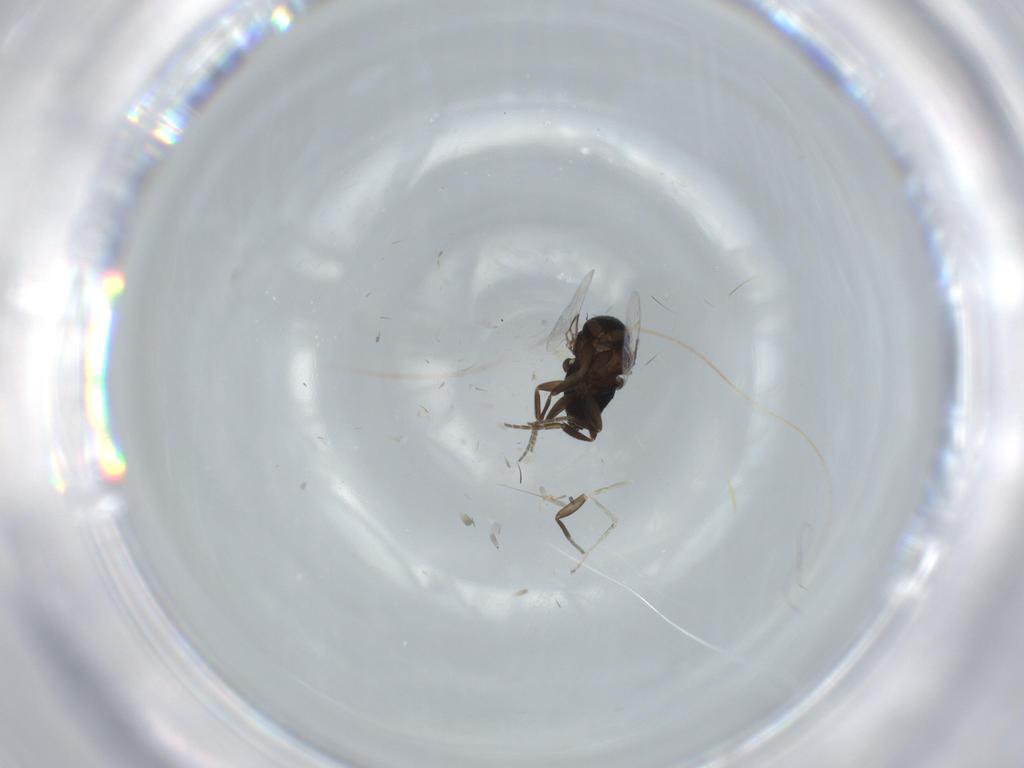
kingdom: Animalia
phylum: Arthropoda
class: Insecta
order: Diptera
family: Phoridae
